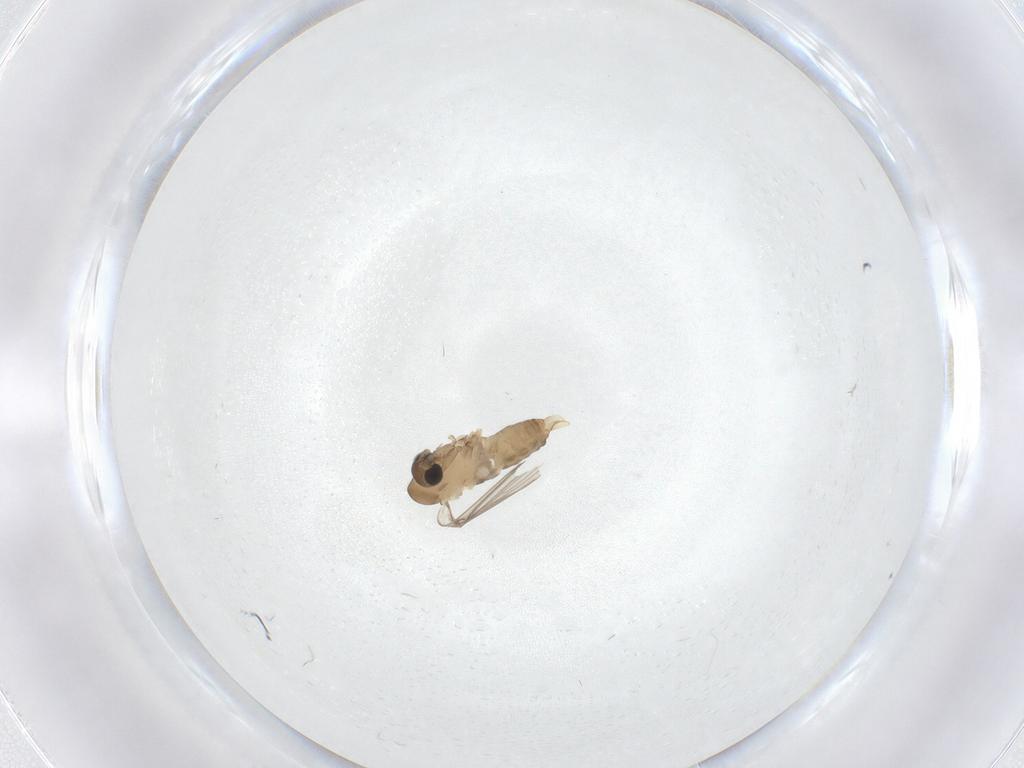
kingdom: Animalia
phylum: Arthropoda
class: Insecta
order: Diptera
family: Psychodidae
